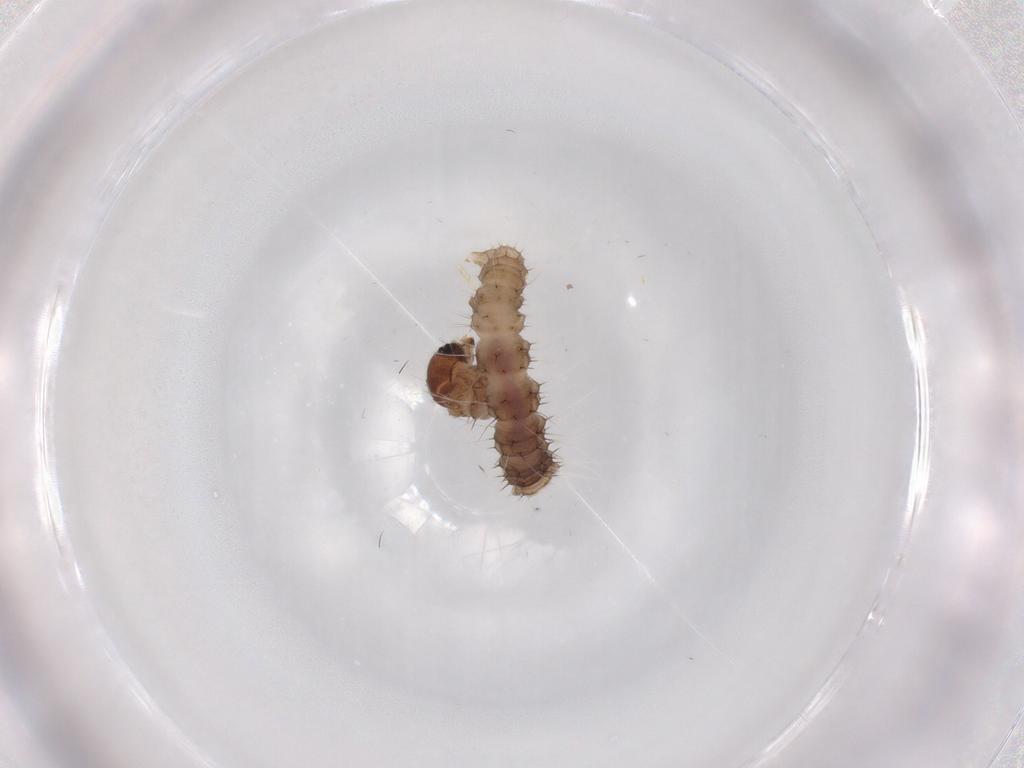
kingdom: Animalia
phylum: Arthropoda
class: Insecta
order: Lepidoptera
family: Geometridae
